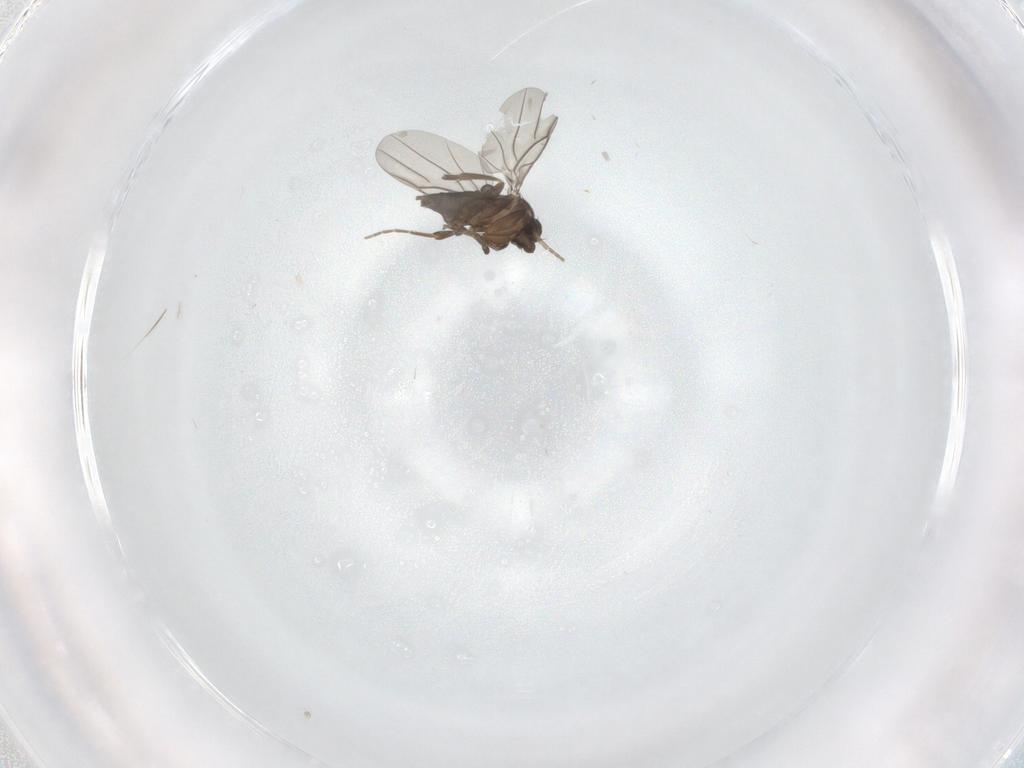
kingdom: Animalia
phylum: Arthropoda
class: Insecta
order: Diptera
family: Phoridae
